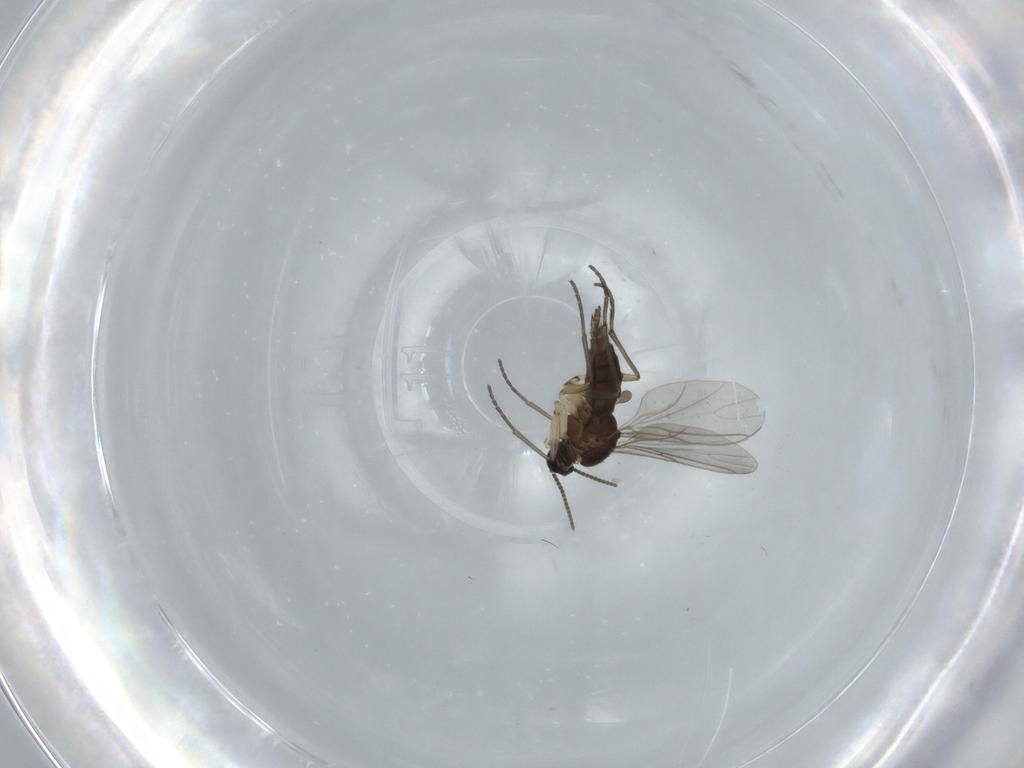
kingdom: Animalia
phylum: Arthropoda
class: Insecta
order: Diptera
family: Sciaridae
